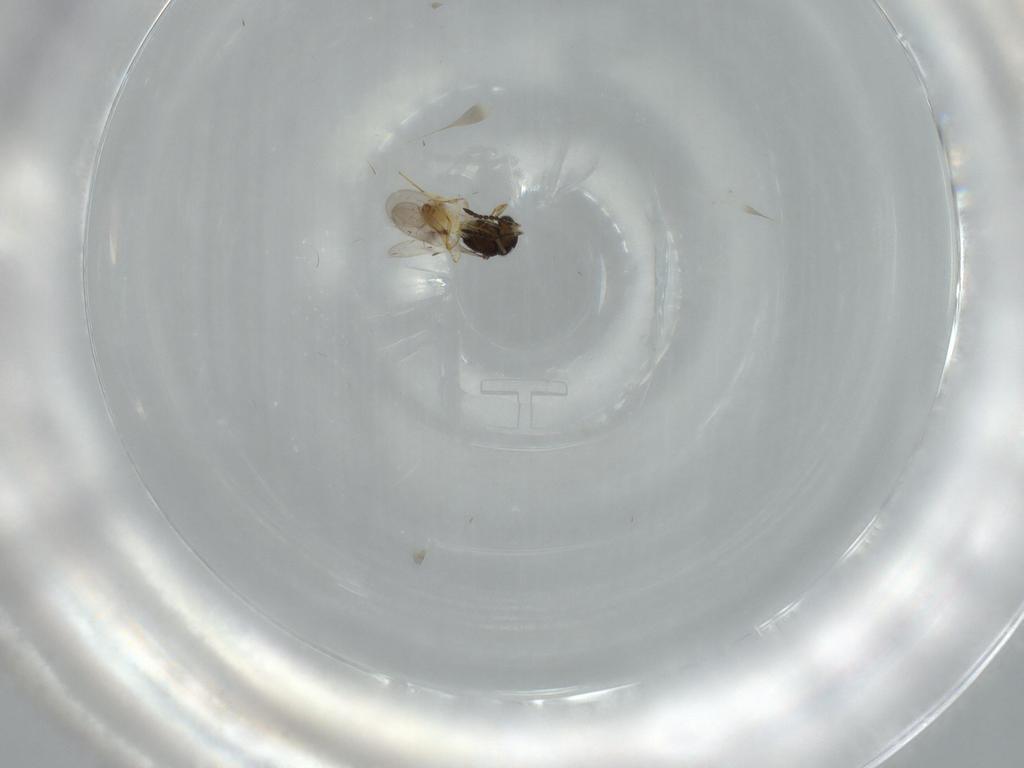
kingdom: Animalia
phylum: Arthropoda
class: Insecta
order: Hymenoptera
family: Scelionidae
